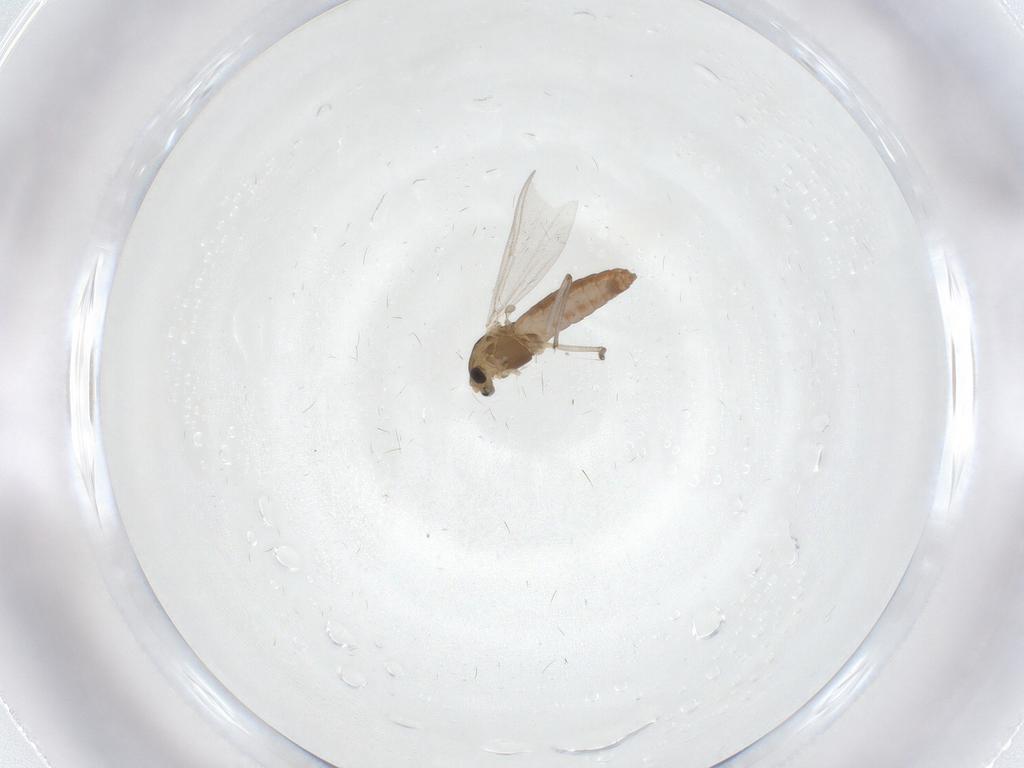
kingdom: Animalia
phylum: Arthropoda
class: Insecta
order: Diptera
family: Chironomidae
